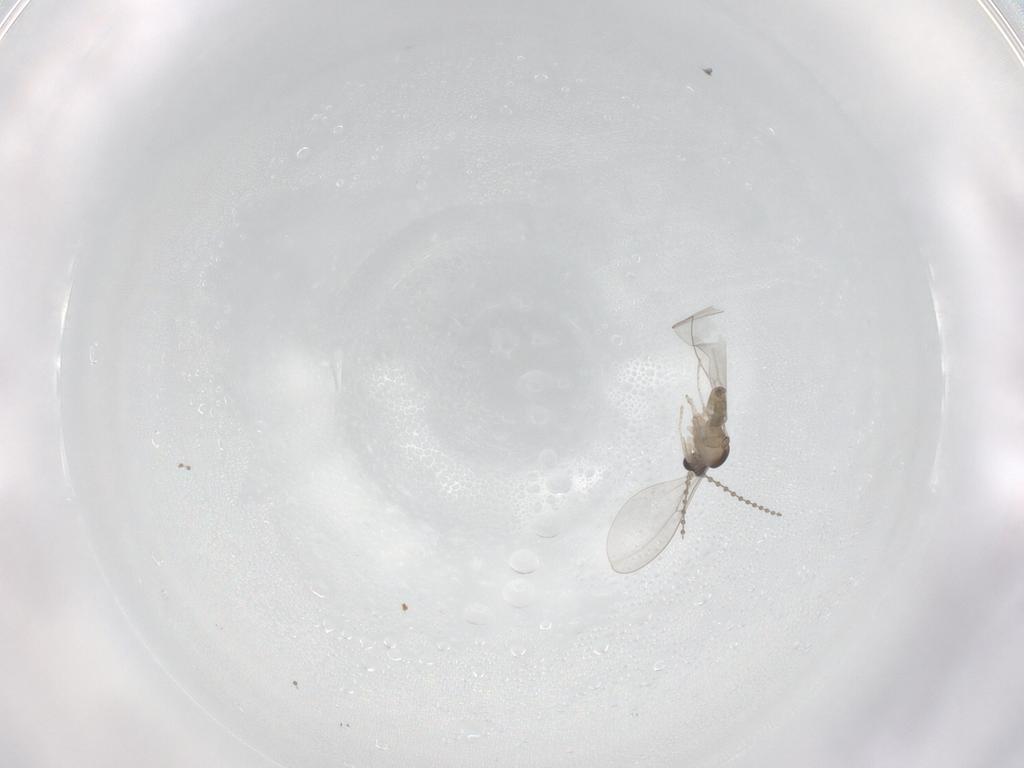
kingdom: Animalia
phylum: Arthropoda
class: Insecta
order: Diptera
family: Cecidomyiidae
